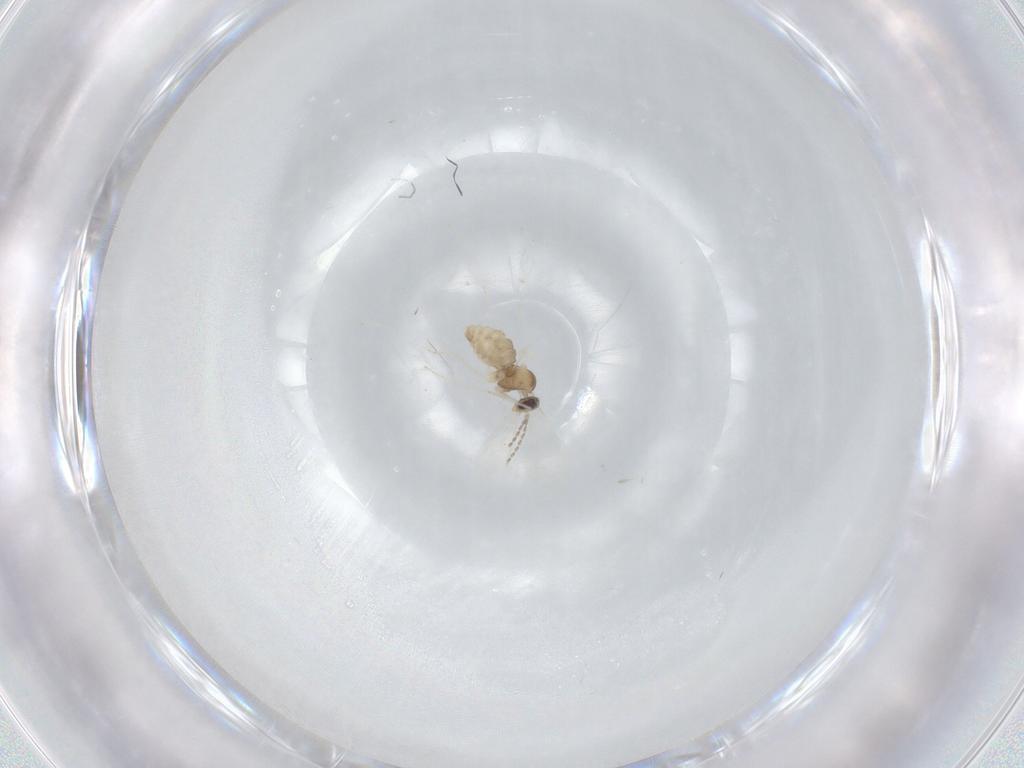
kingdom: Animalia
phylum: Arthropoda
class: Insecta
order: Diptera
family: Cecidomyiidae
